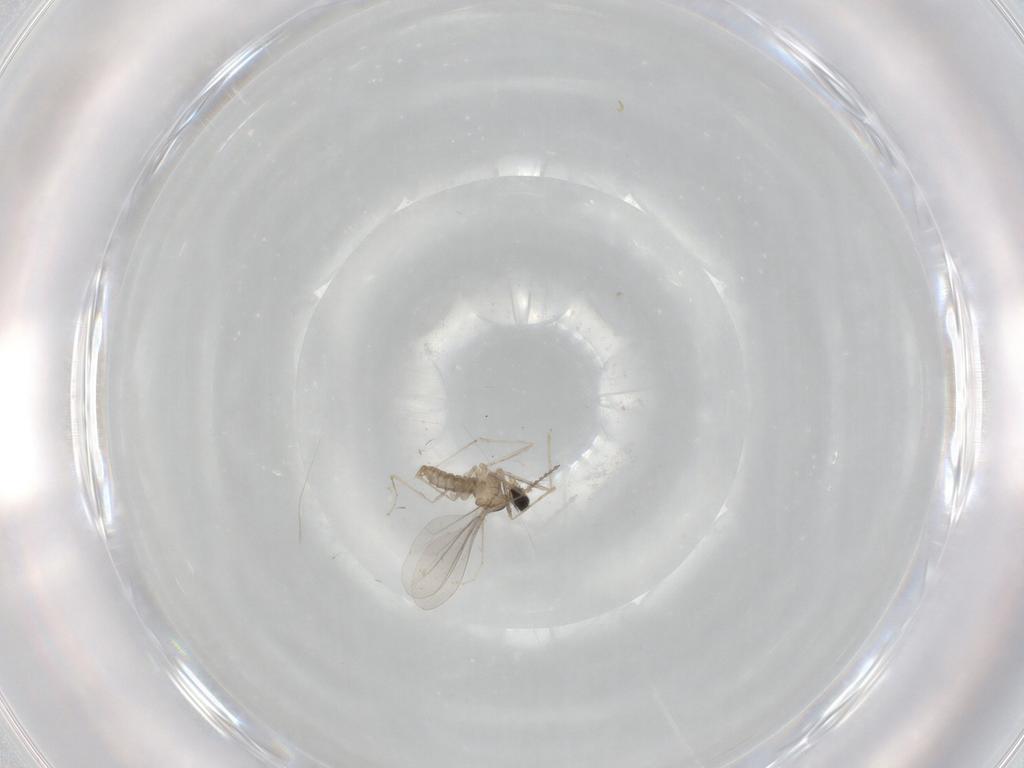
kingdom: Animalia
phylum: Arthropoda
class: Insecta
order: Diptera
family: Cecidomyiidae
